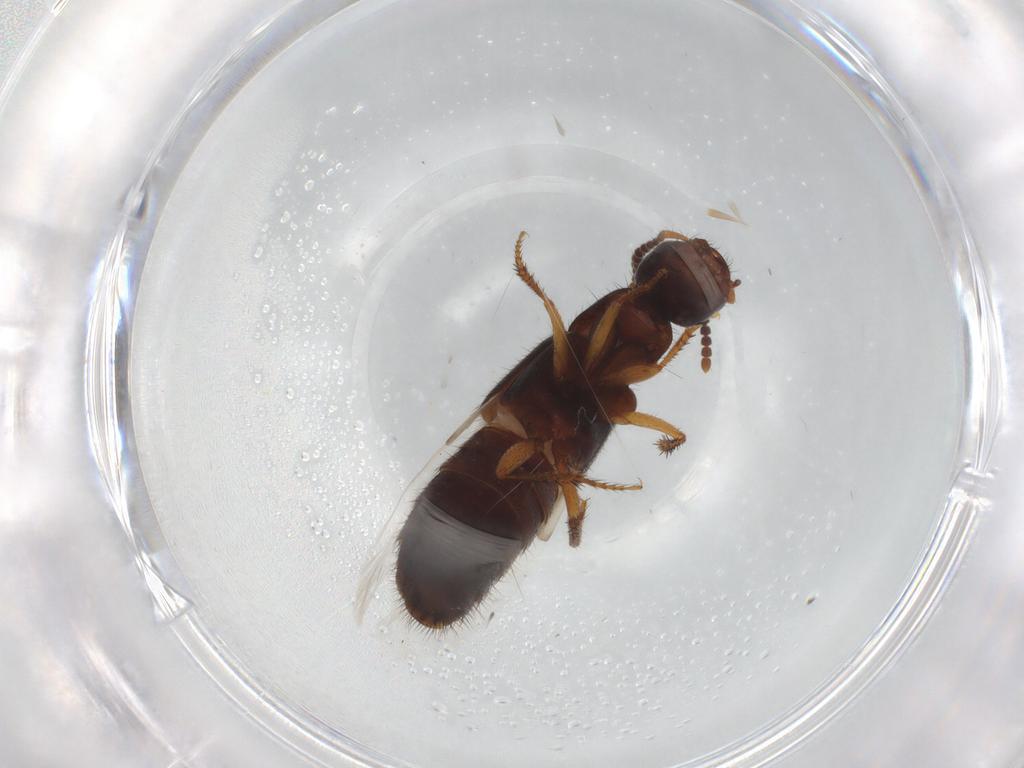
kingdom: Animalia
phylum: Arthropoda
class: Insecta
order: Coleoptera
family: Staphylinidae
